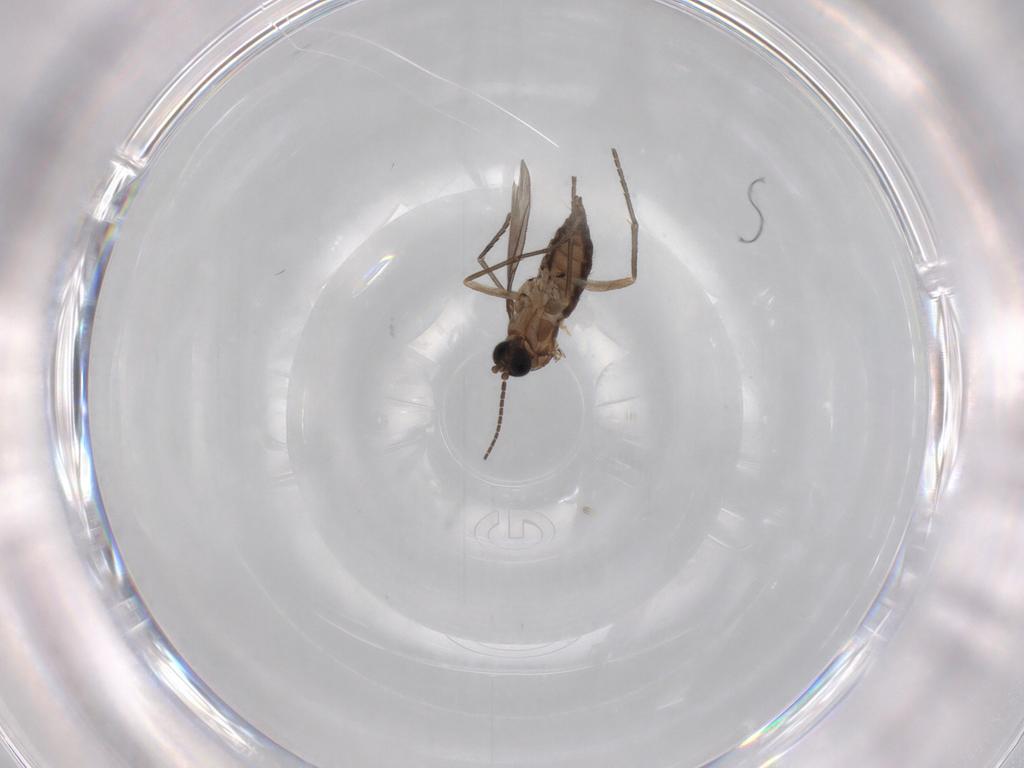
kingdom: Animalia
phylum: Arthropoda
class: Insecta
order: Diptera
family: Sciaridae
